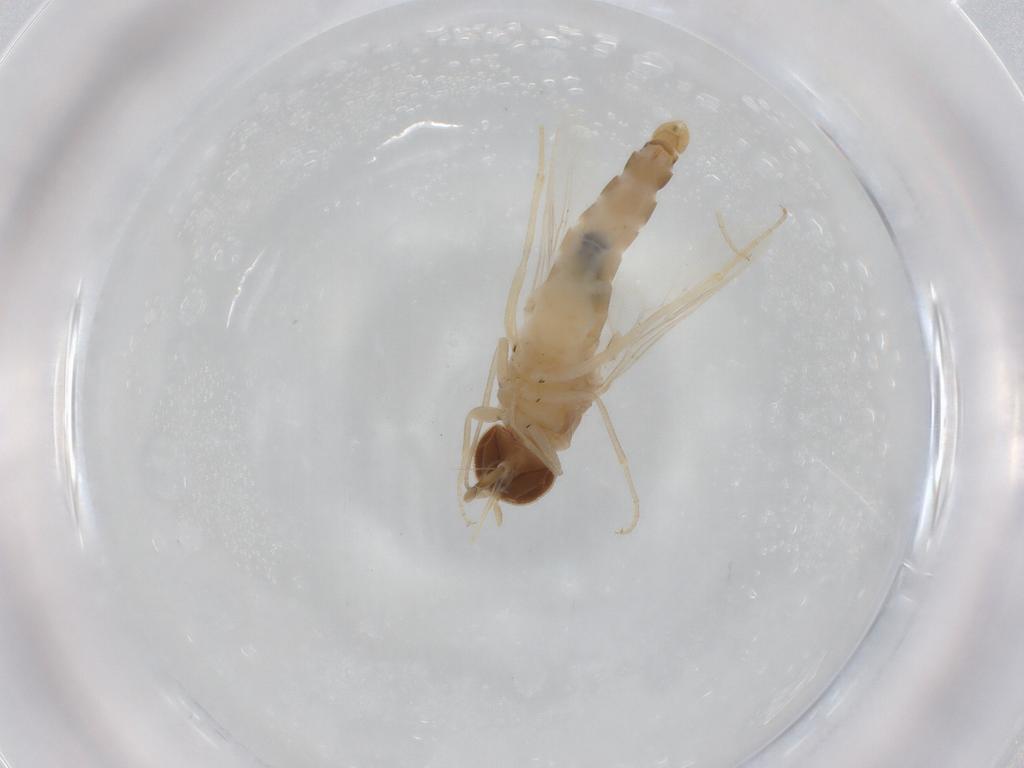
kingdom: Animalia
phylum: Arthropoda
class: Insecta
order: Diptera
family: Scenopinidae
